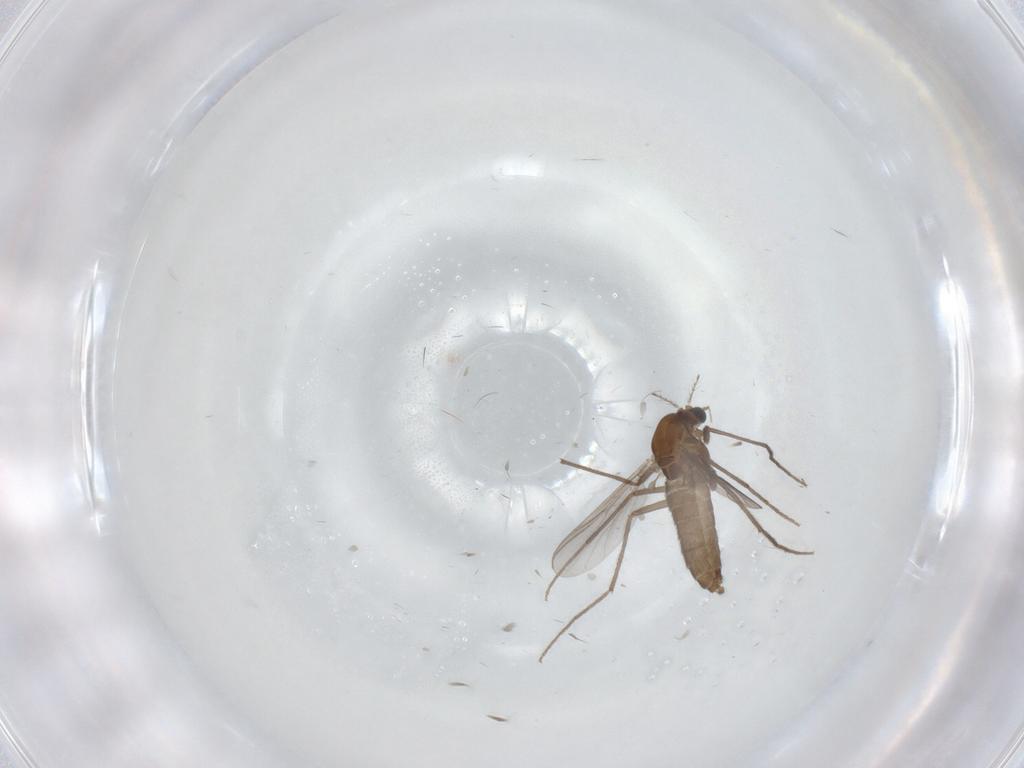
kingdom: Animalia
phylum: Arthropoda
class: Insecta
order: Diptera
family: Chironomidae
